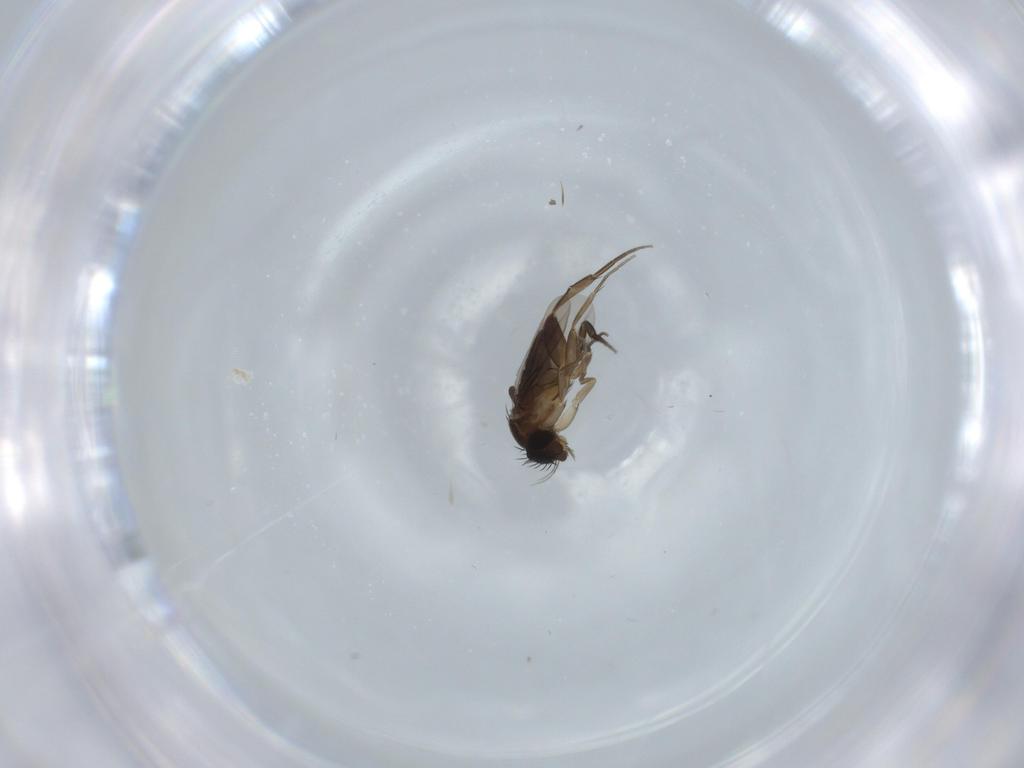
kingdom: Animalia
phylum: Arthropoda
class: Insecta
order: Diptera
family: Phoridae
